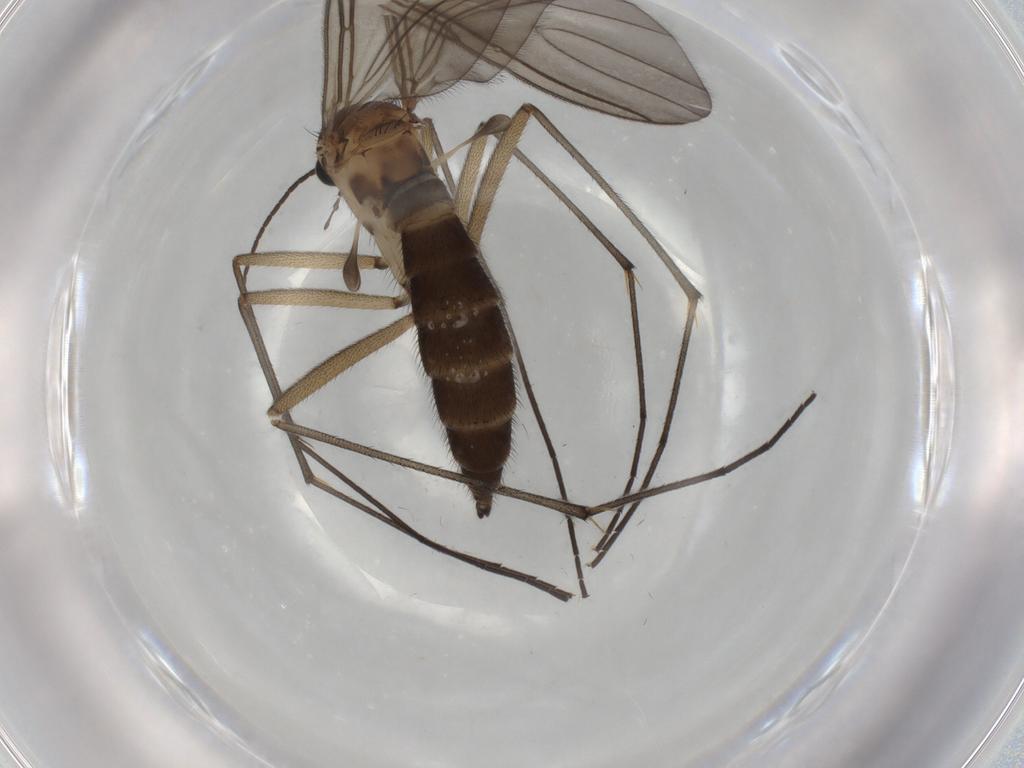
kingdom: Animalia
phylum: Arthropoda
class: Insecta
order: Diptera
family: Sciaridae
